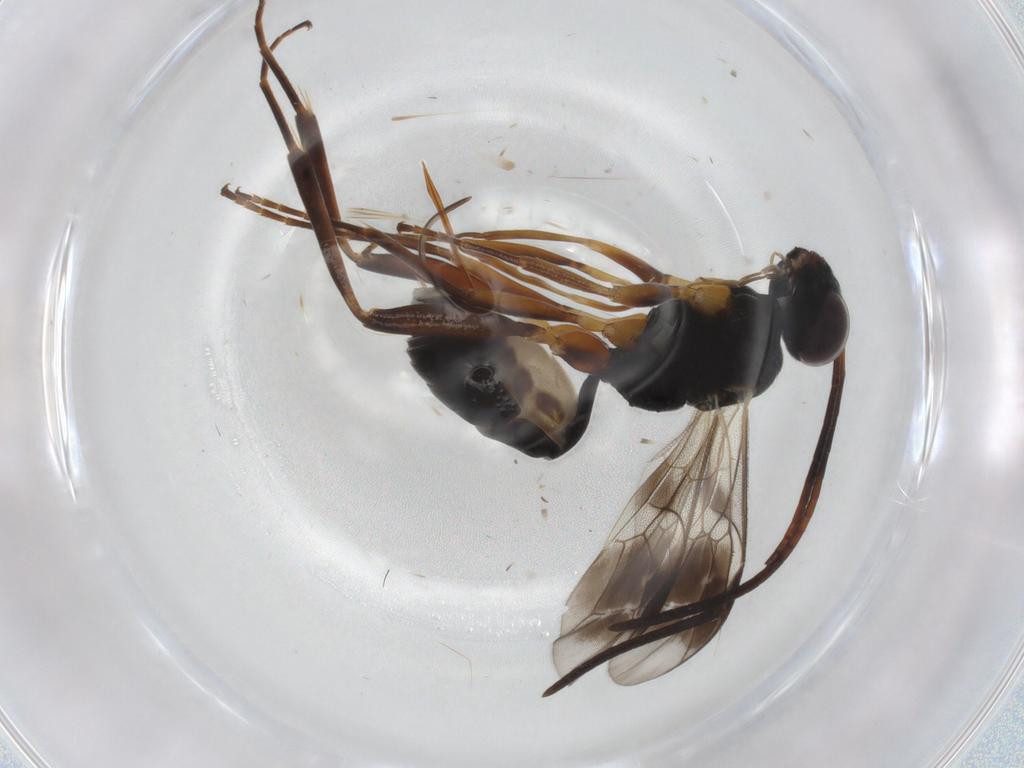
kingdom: Animalia
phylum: Arthropoda
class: Insecta
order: Hymenoptera
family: Ichneumonidae
